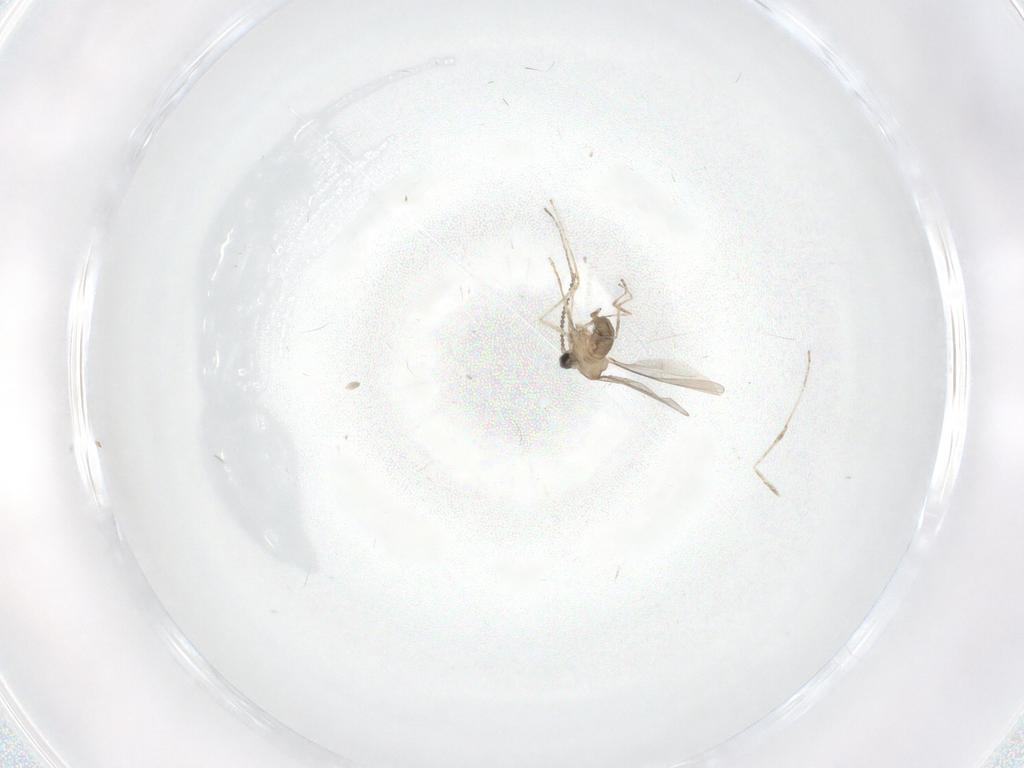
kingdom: Animalia
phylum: Arthropoda
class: Insecta
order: Diptera
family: Cecidomyiidae
